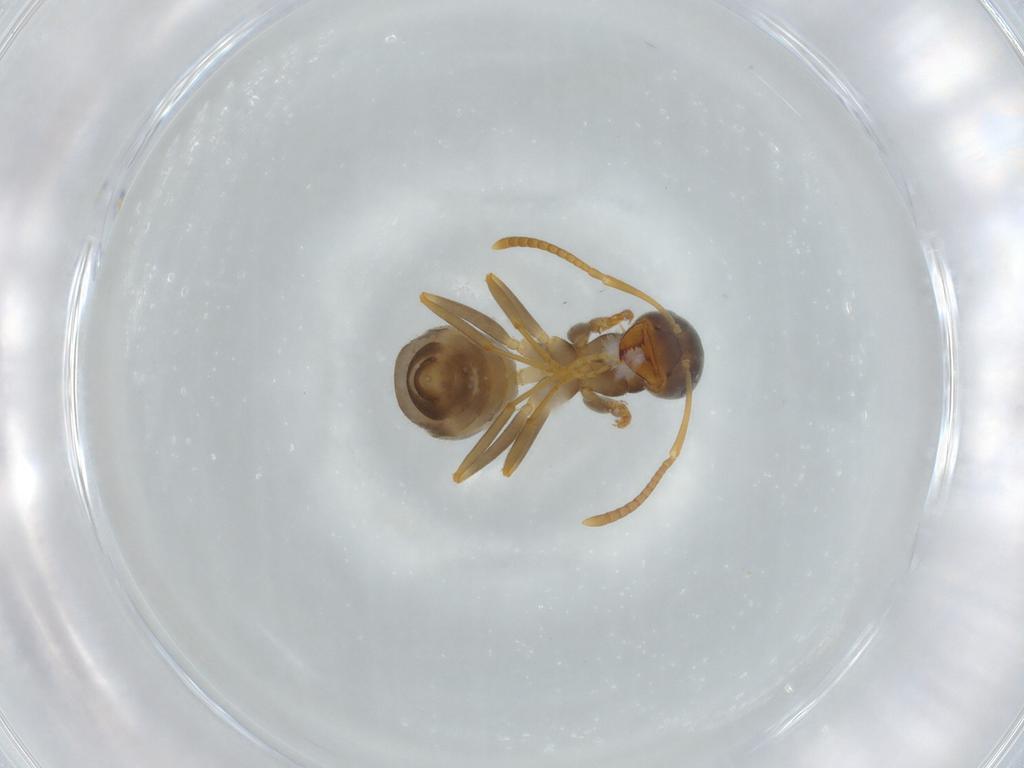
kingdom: Animalia
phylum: Arthropoda
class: Insecta
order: Hymenoptera
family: Formicidae
